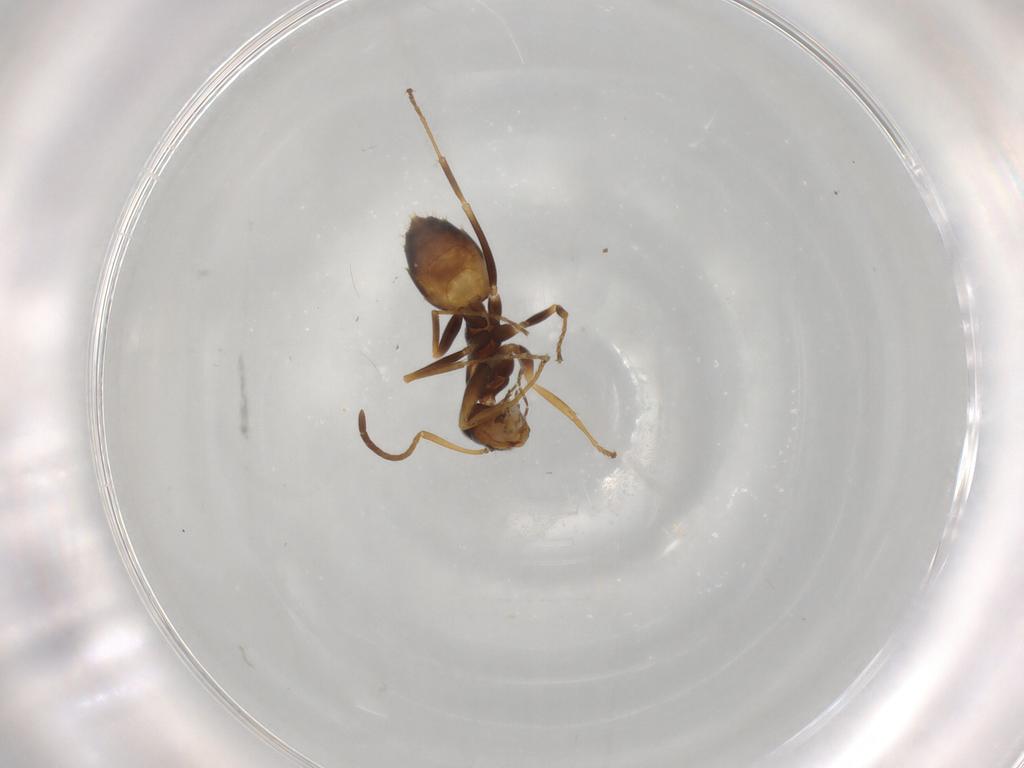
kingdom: Animalia
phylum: Arthropoda
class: Insecta
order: Hymenoptera
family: Formicidae
